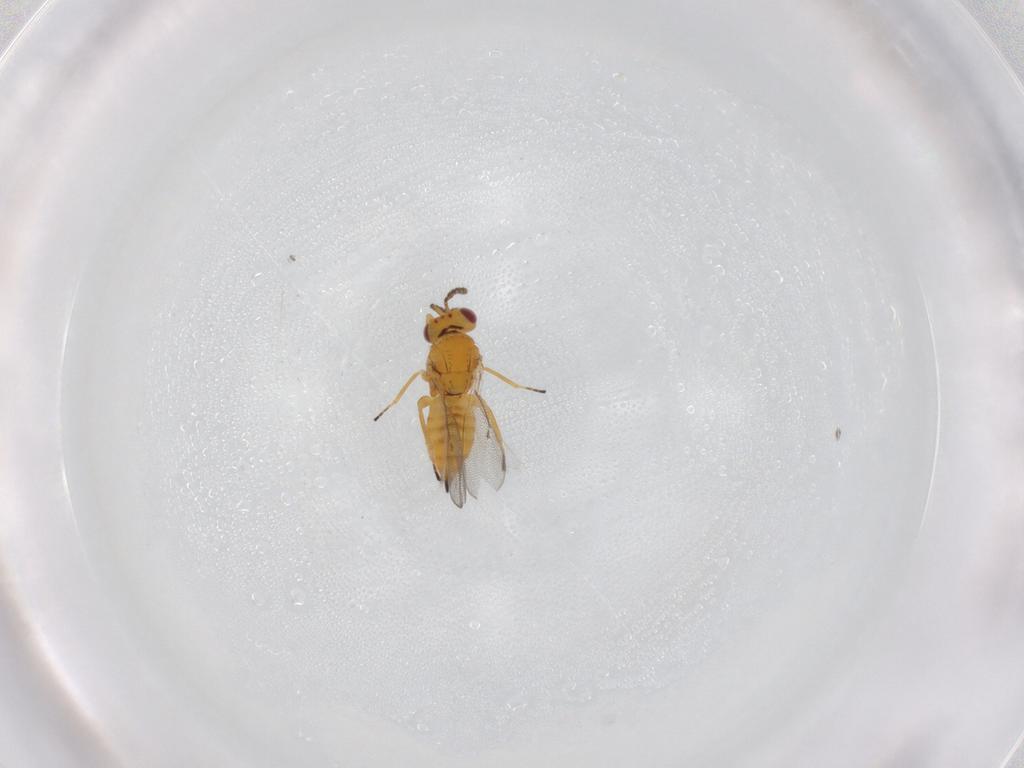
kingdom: Animalia
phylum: Arthropoda
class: Insecta
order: Hymenoptera
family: Eulophidae
